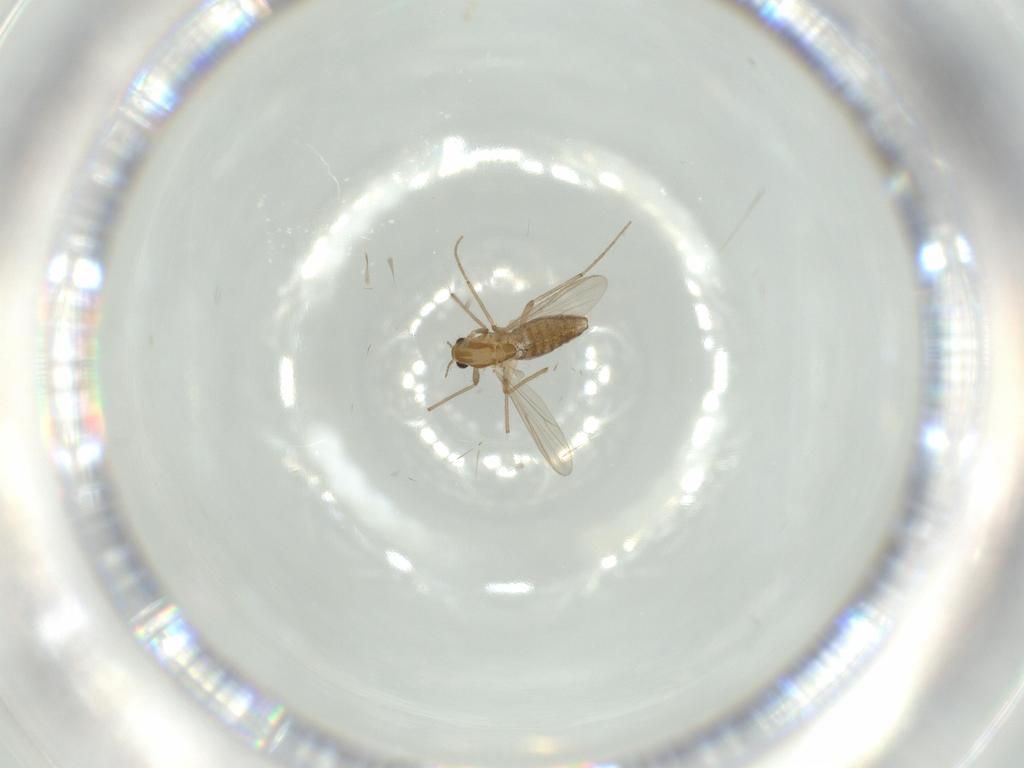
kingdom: Animalia
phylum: Arthropoda
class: Insecta
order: Diptera
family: Chironomidae
